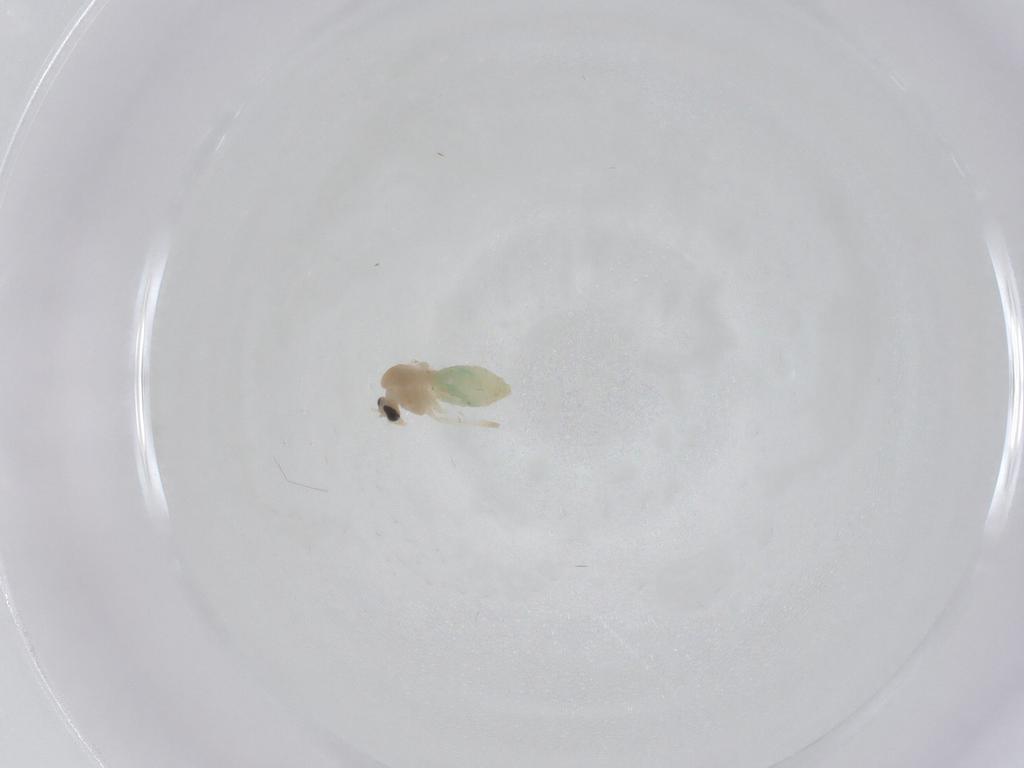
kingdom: Animalia
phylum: Arthropoda
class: Insecta
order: Diptera
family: Chironomidae
